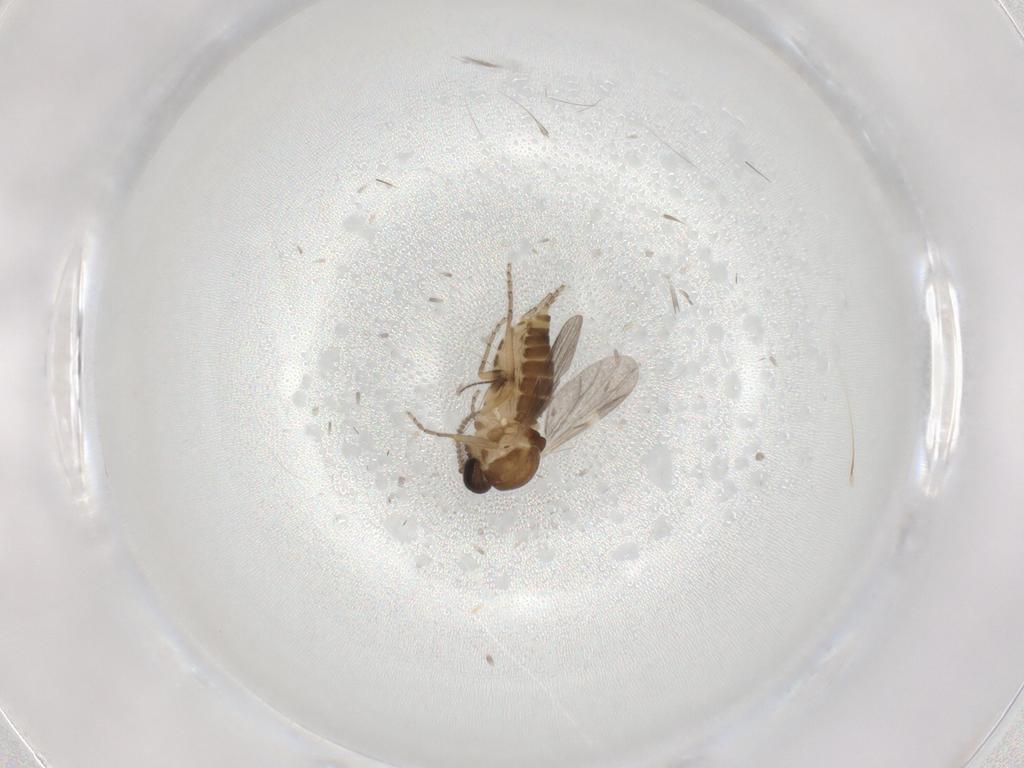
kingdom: Animalia
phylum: Arthropoda
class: Insecta
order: Diptera
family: Ceratopogonidae
